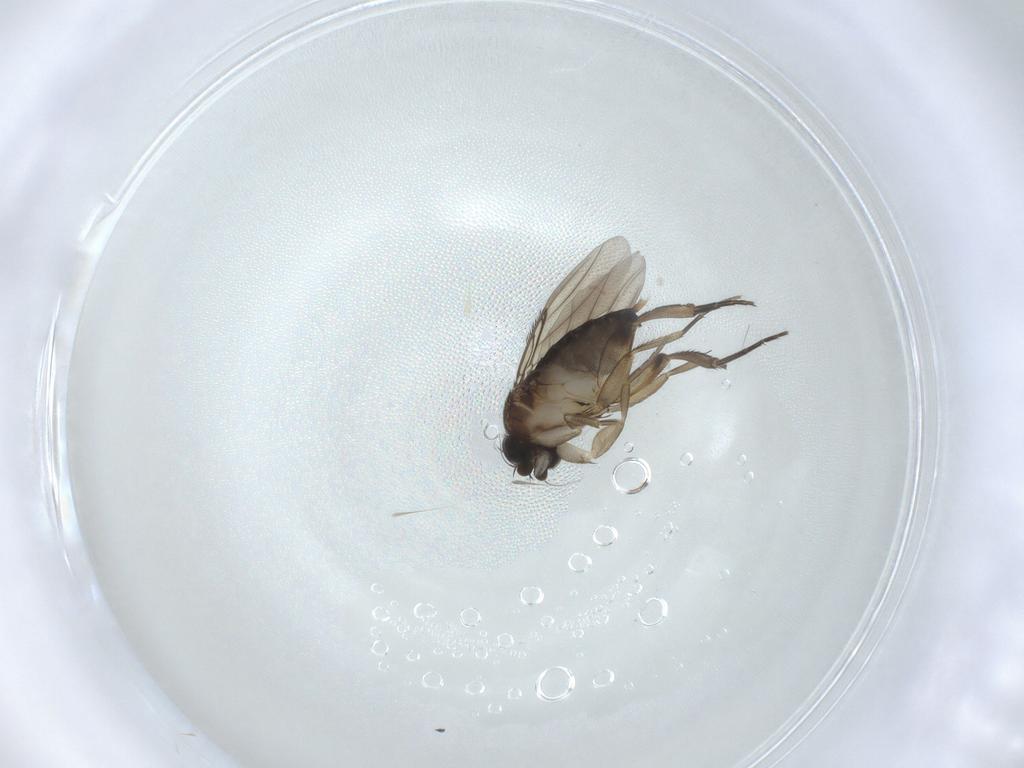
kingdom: Animalia
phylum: Arthropoda
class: Insecta
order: Diptera
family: Phoridae
